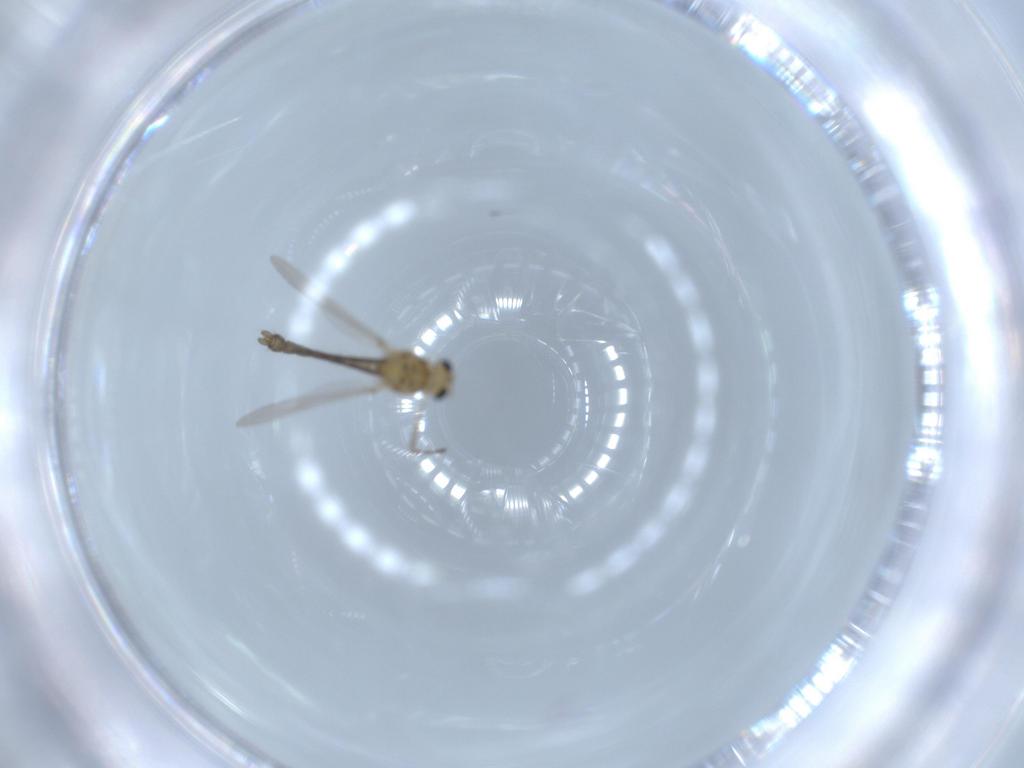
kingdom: Animalia
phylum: Arthropoda
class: Insecta
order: Diptera
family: Chironomidae
